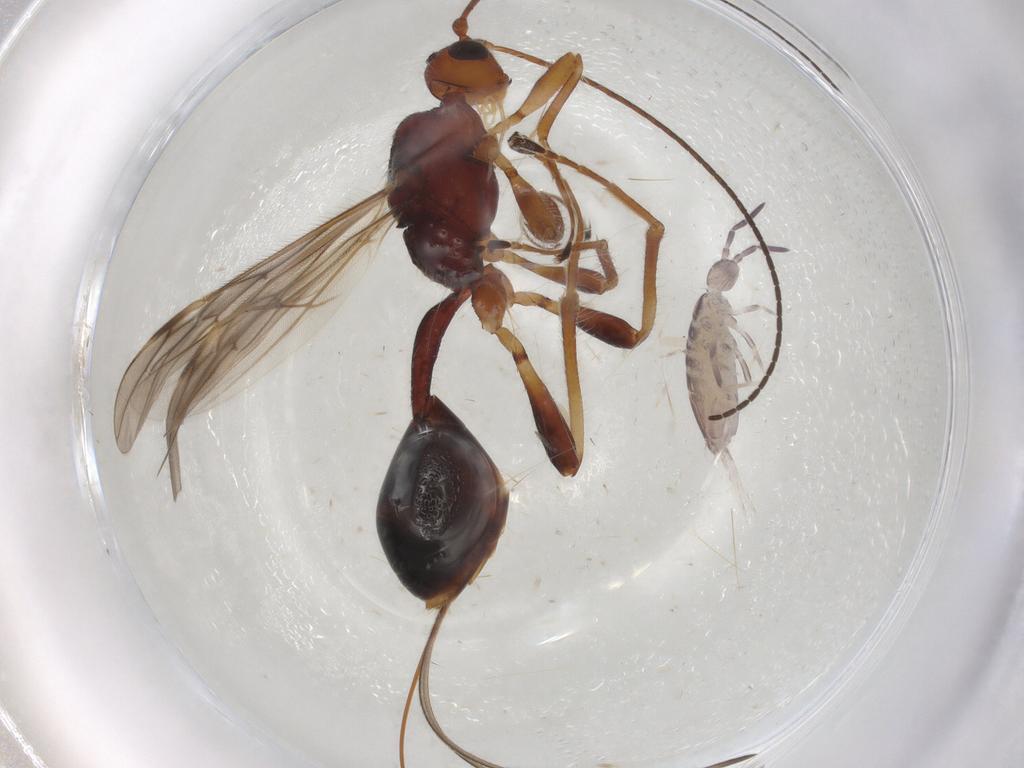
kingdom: Animalia
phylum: Arthropoda
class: Collembola
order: Entomobryomorpha
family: Entomobryidae
